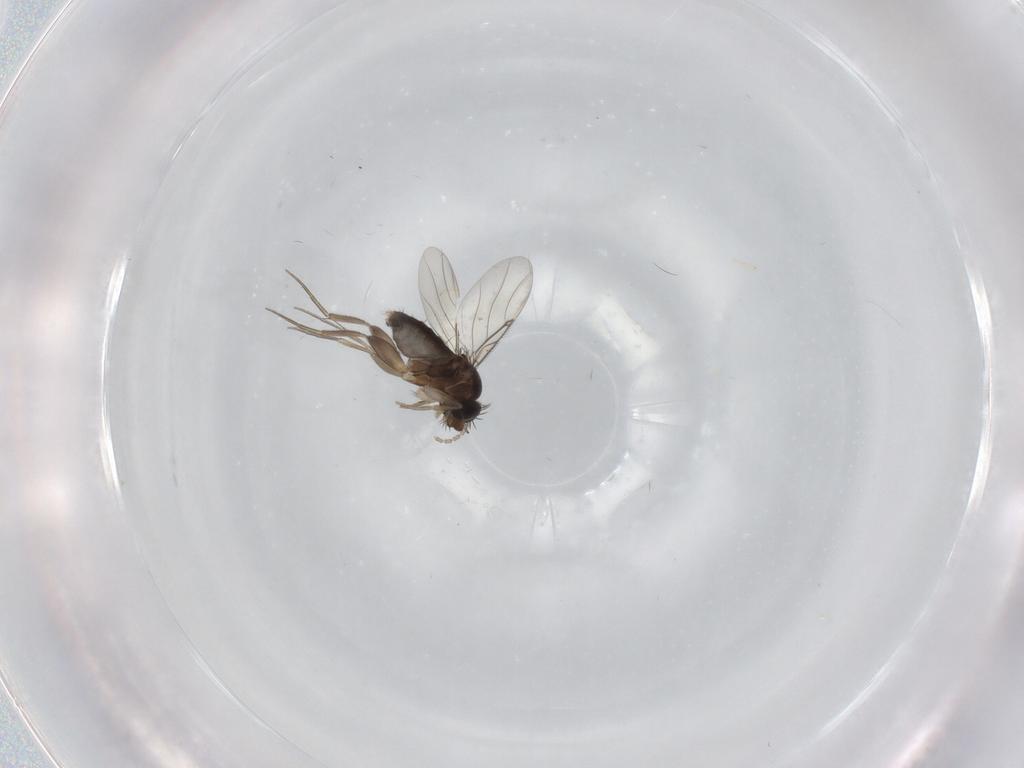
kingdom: Animalia
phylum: Arthropoda
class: Insecta
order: Diptera
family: Phoridae
